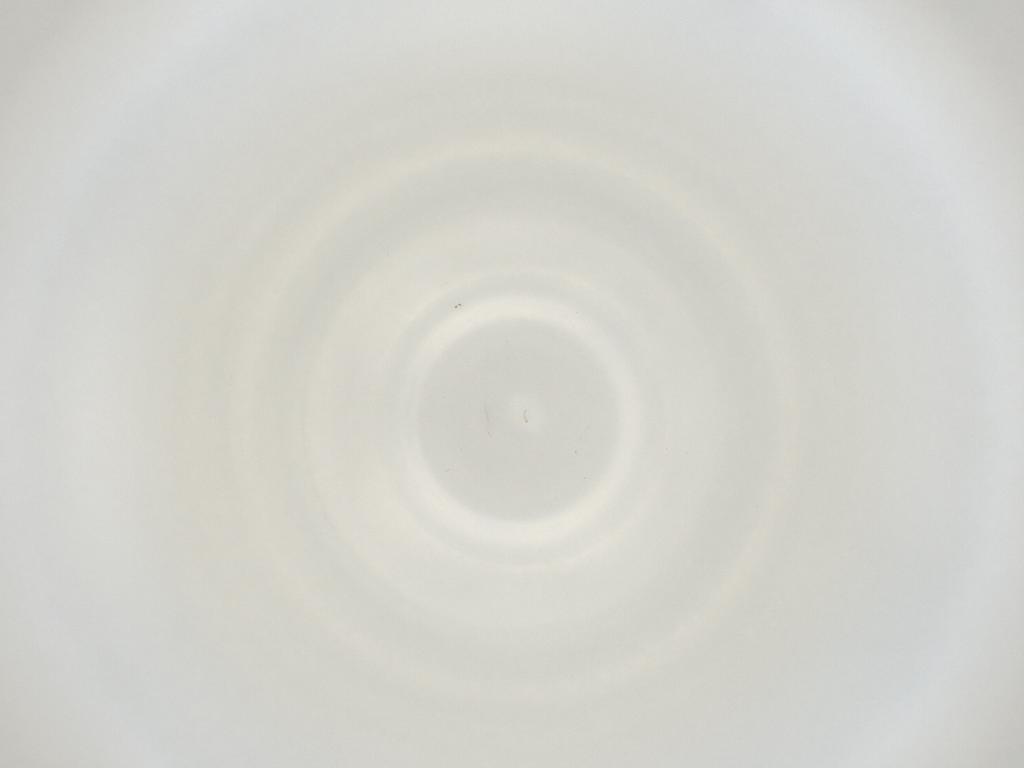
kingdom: Animalia
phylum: Arthropoda
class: Insecta
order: Diptera
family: Cecidomyiidae
